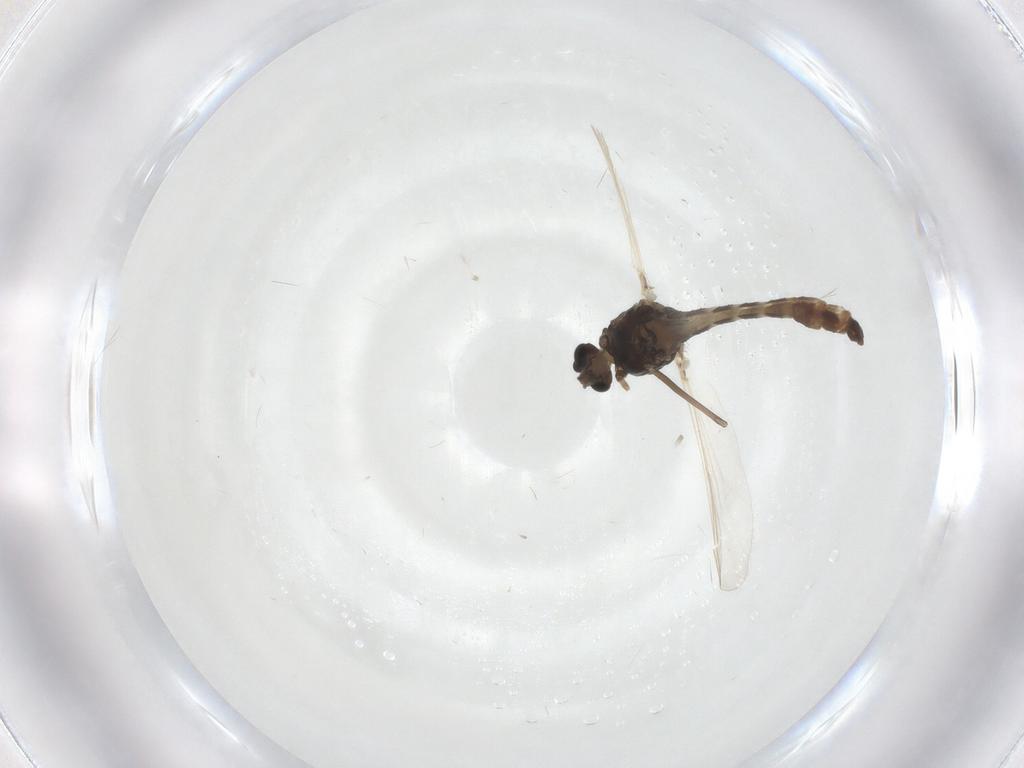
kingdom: Animalia
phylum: Arthropoda
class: Insecta
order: Diptera
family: Chironomidae
